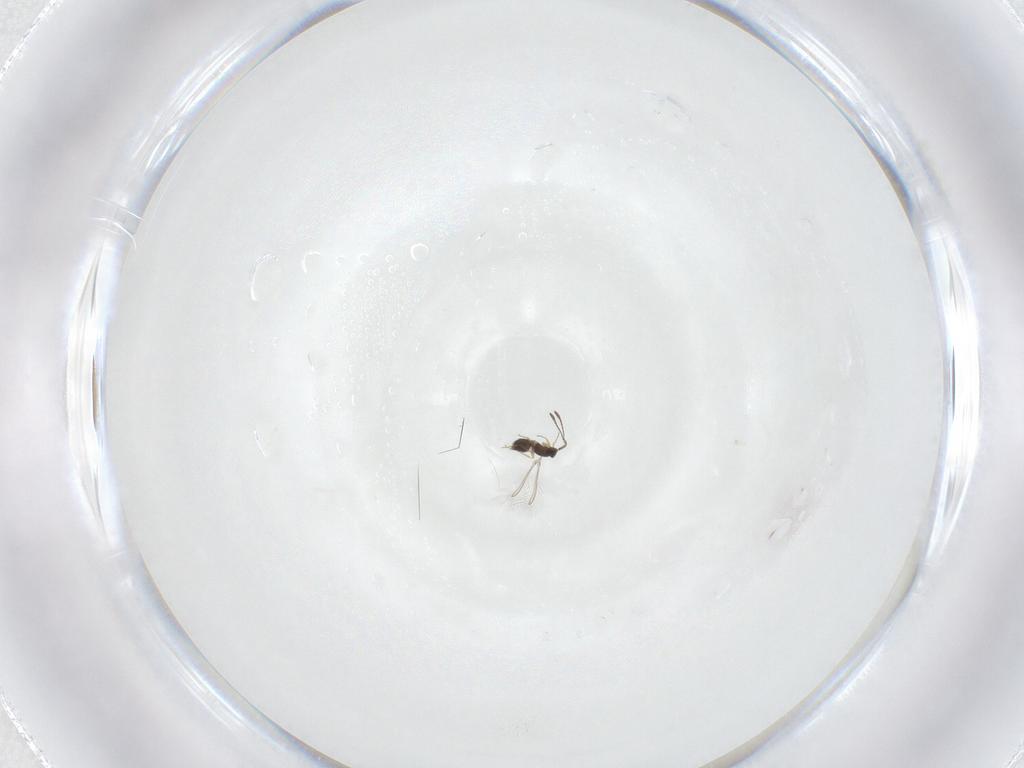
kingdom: Animalia
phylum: Arthropoda
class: Insecta
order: Hymenoptera
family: Mymaridae
